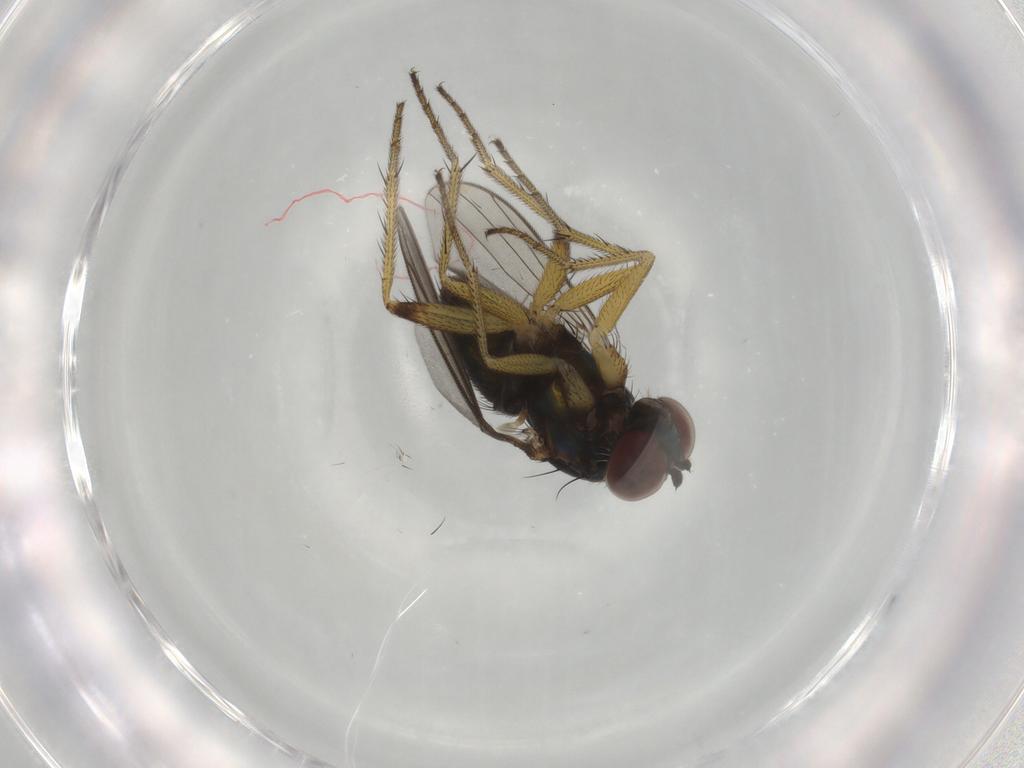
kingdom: Animalia
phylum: Arthropoda
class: Insecta
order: Diptera
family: Dolichopodidae
